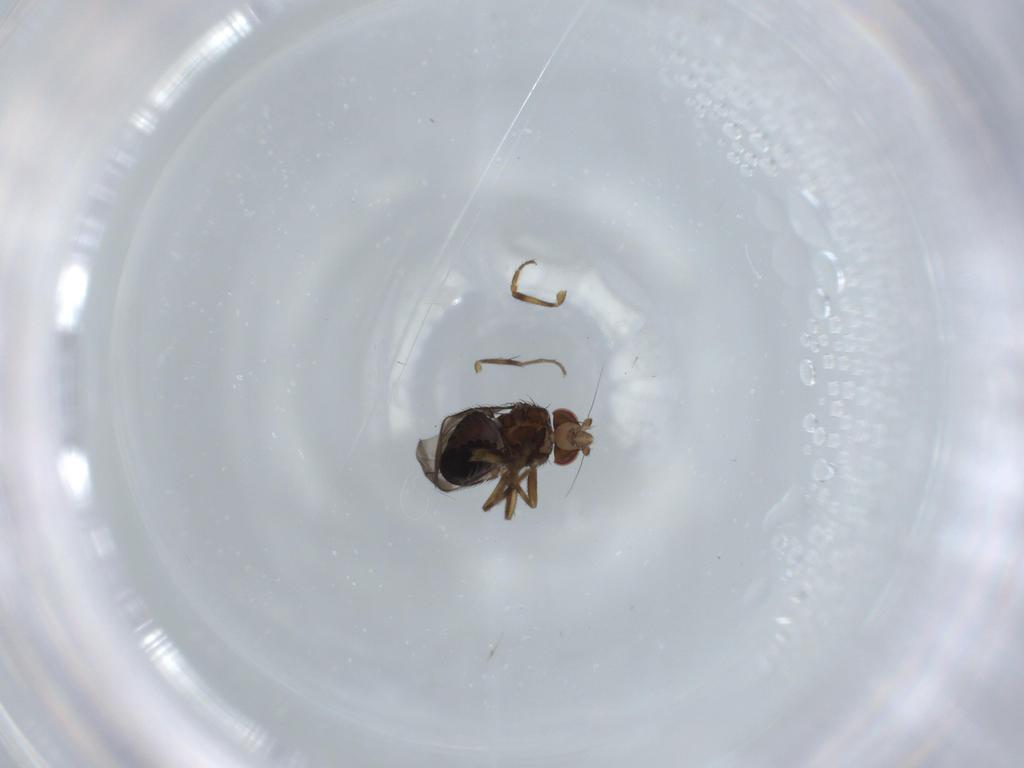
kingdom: Animalia
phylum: Arthropoda
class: Insecta
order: Diptera
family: Sphaeroceridae
